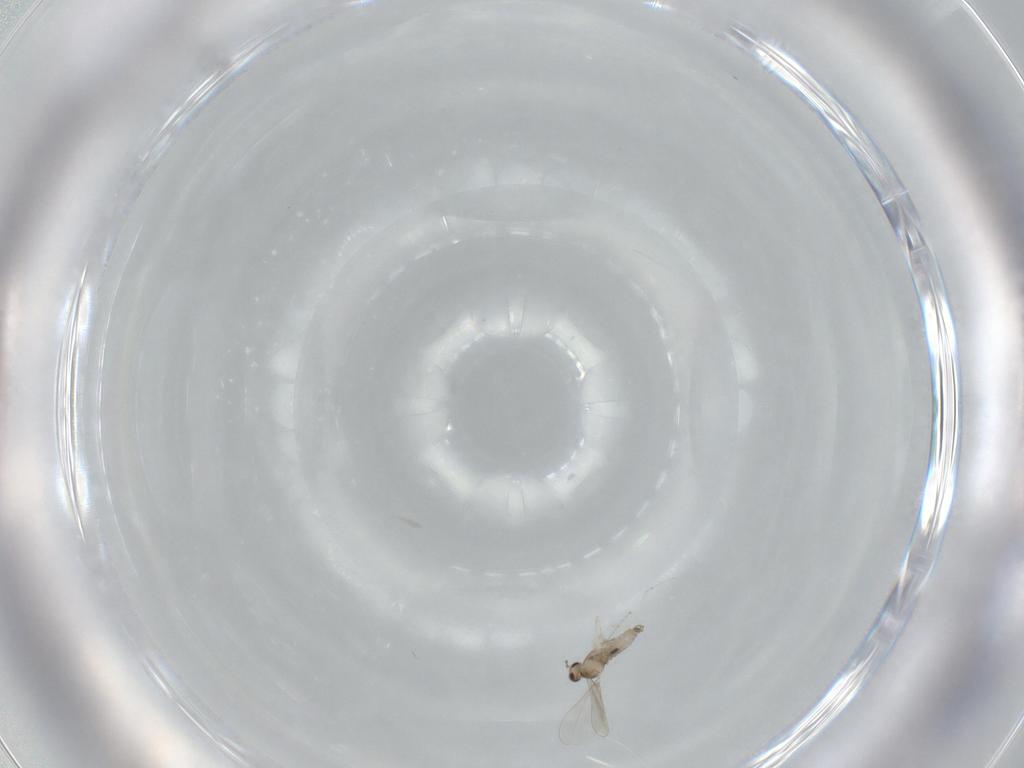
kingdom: Animalia
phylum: Arthropoda
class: Insecta
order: Diptera
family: Cecidomyiidae
